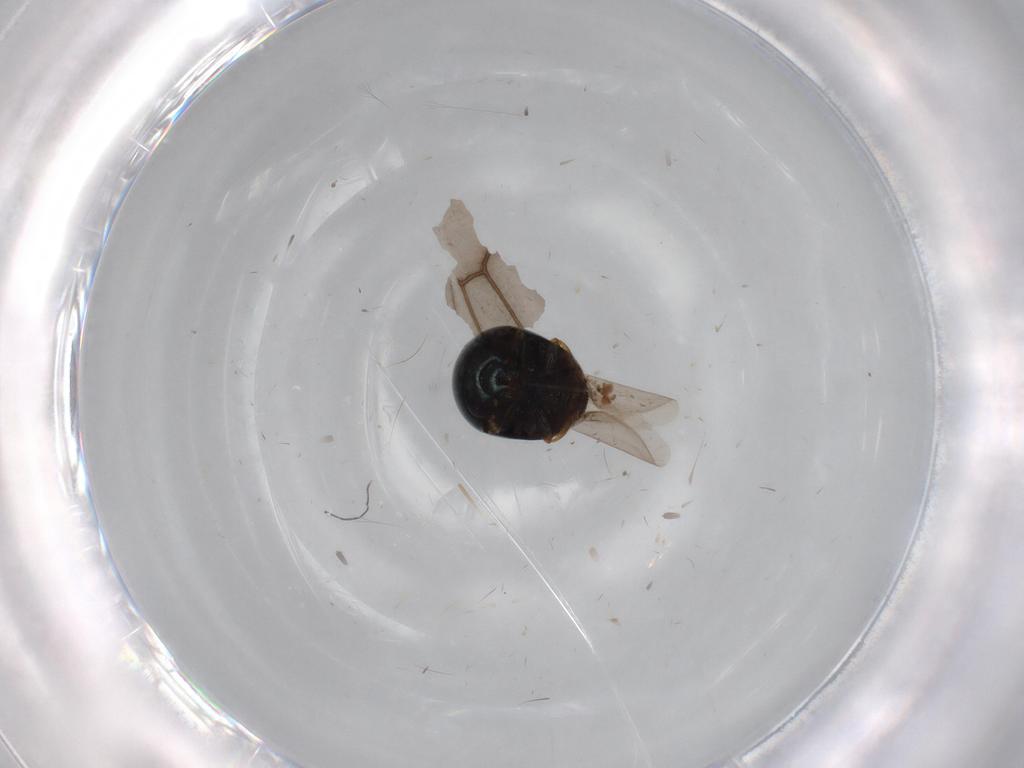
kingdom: Animalia
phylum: Arthropoda
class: Insecta
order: Coleoptera
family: Cybocephalidae
